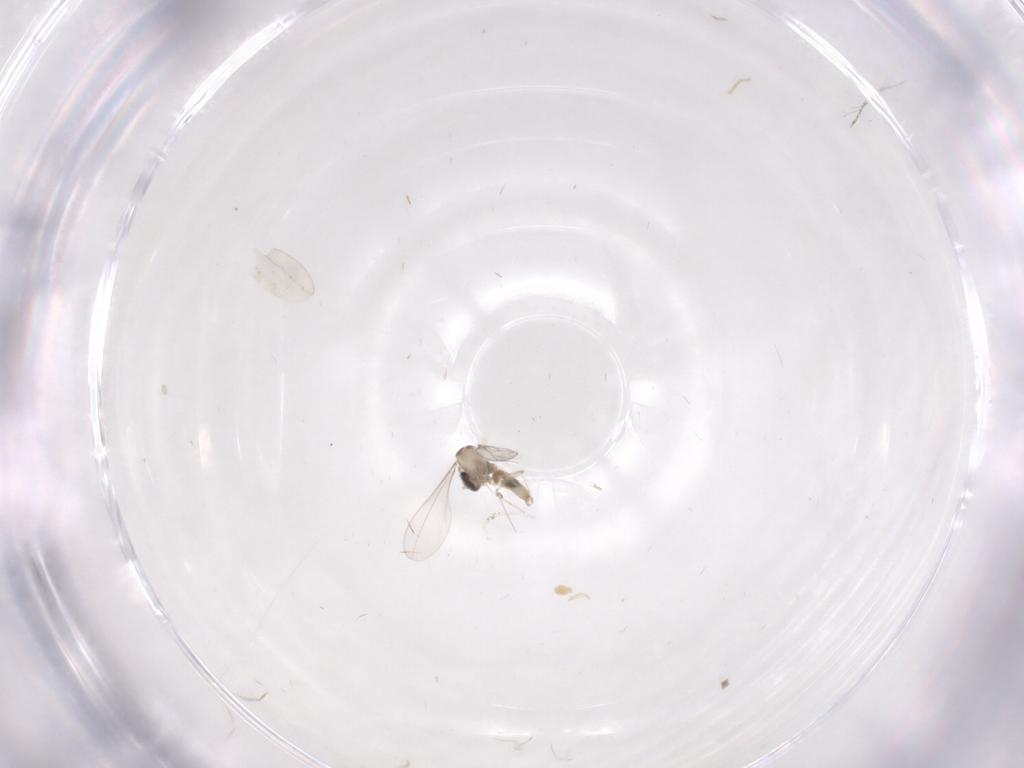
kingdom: Animalia
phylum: Arthropoda
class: Insecta
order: Diptera
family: Cecidomyiidae
